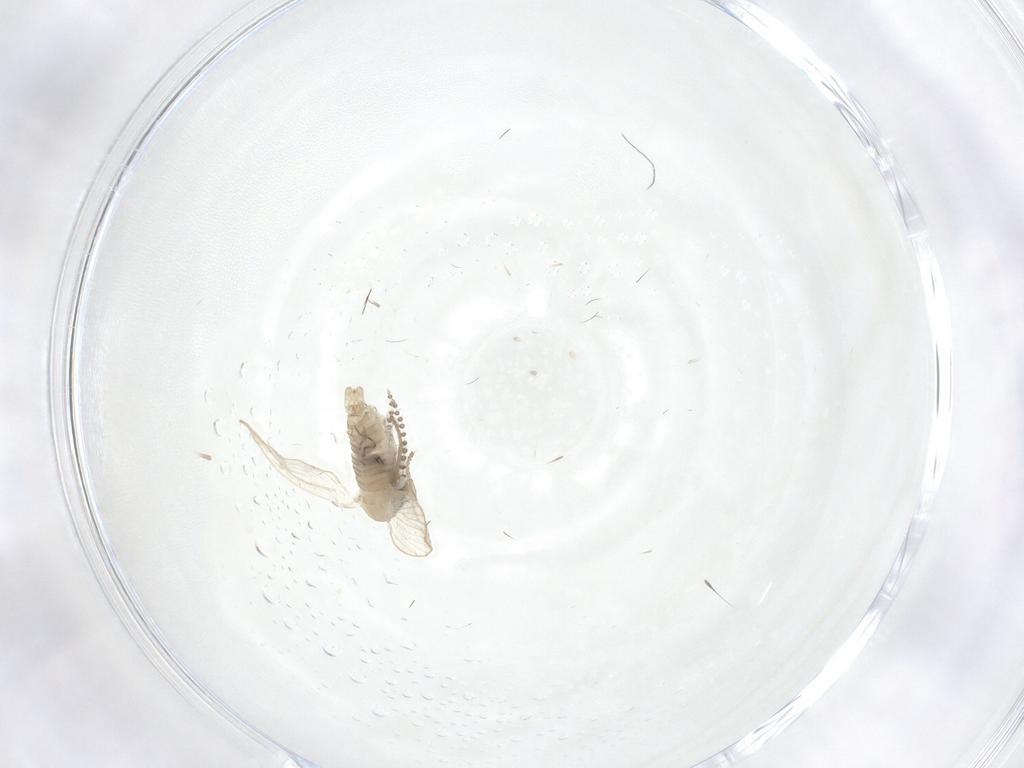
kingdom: Animalia
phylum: Arthropoda
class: Insecta
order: Diptera
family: Psychodidae
